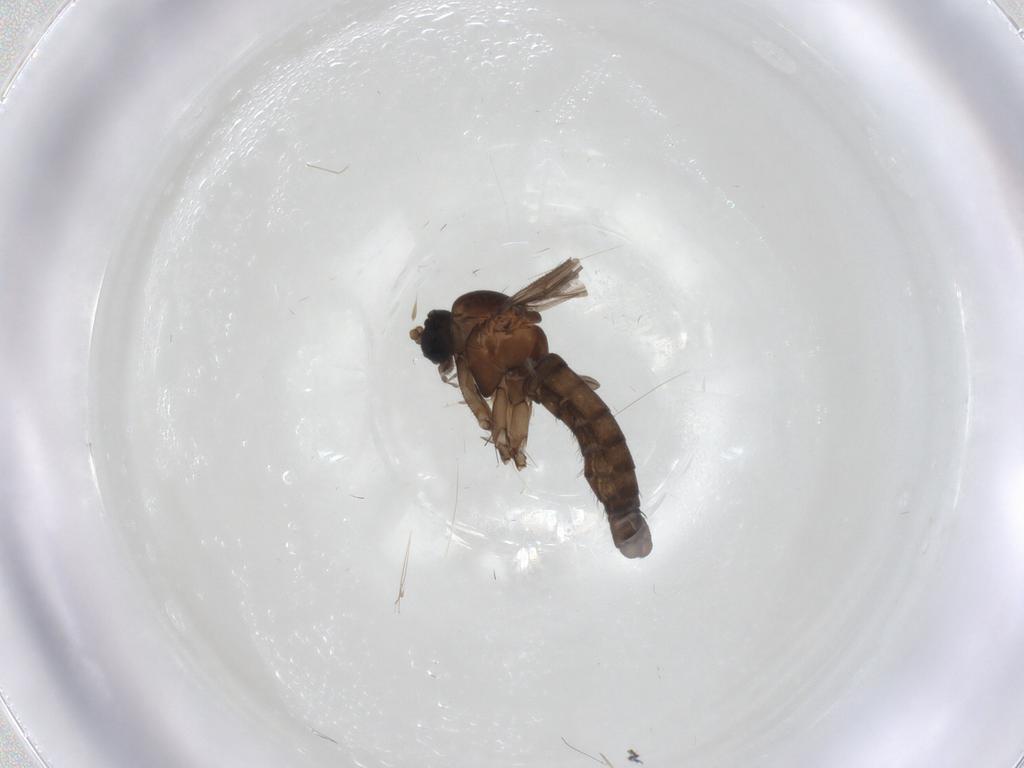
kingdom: Animalia
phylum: Arthropoda
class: Insecta
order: Diptera
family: Sciaridae
